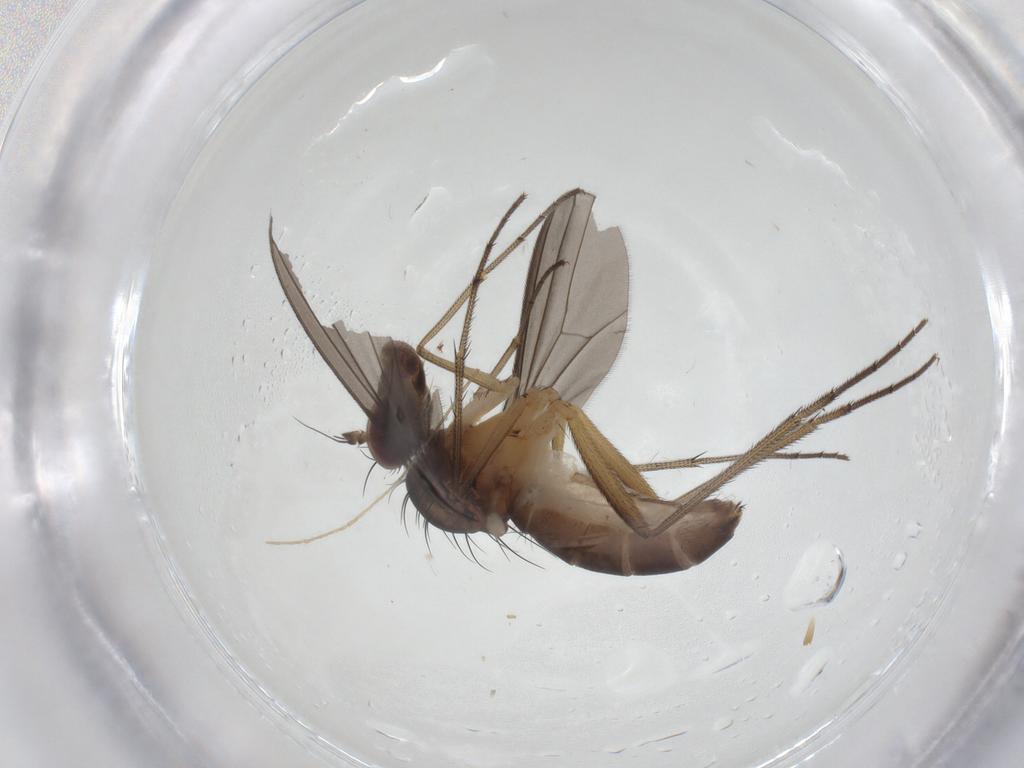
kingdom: Animalia
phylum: Arthropoda
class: Insecta
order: Diptera
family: Dolichopodidae
